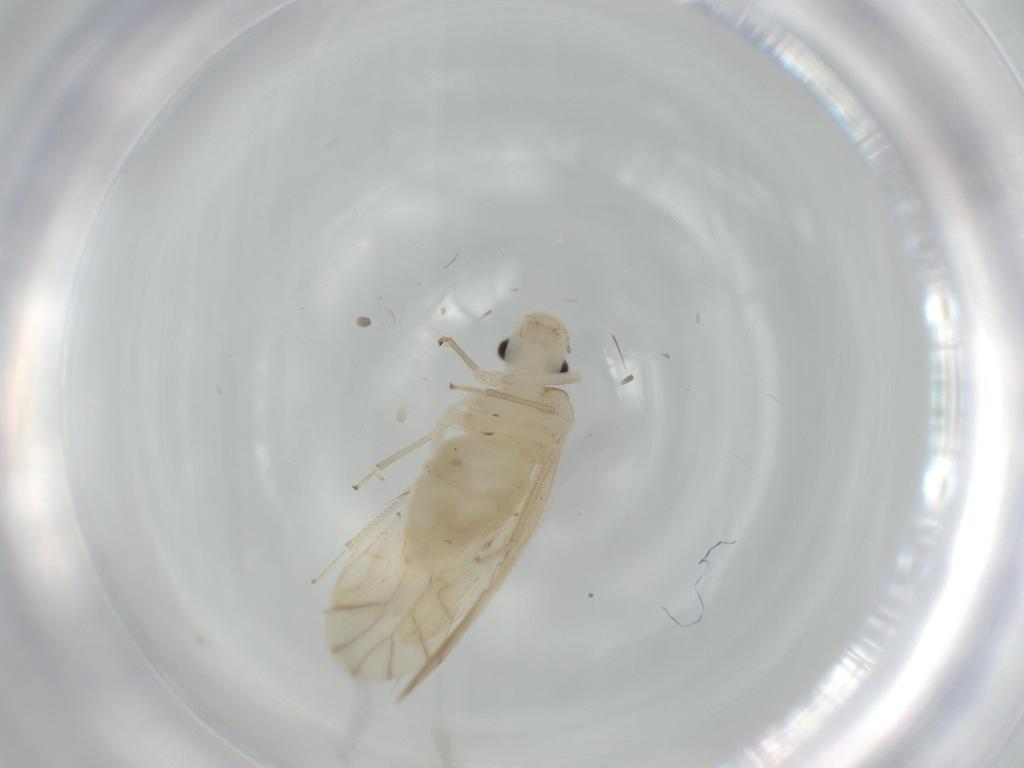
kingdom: Animalia
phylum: Arthropoda
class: Insecta
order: Psocodea
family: Caeciliusidae
